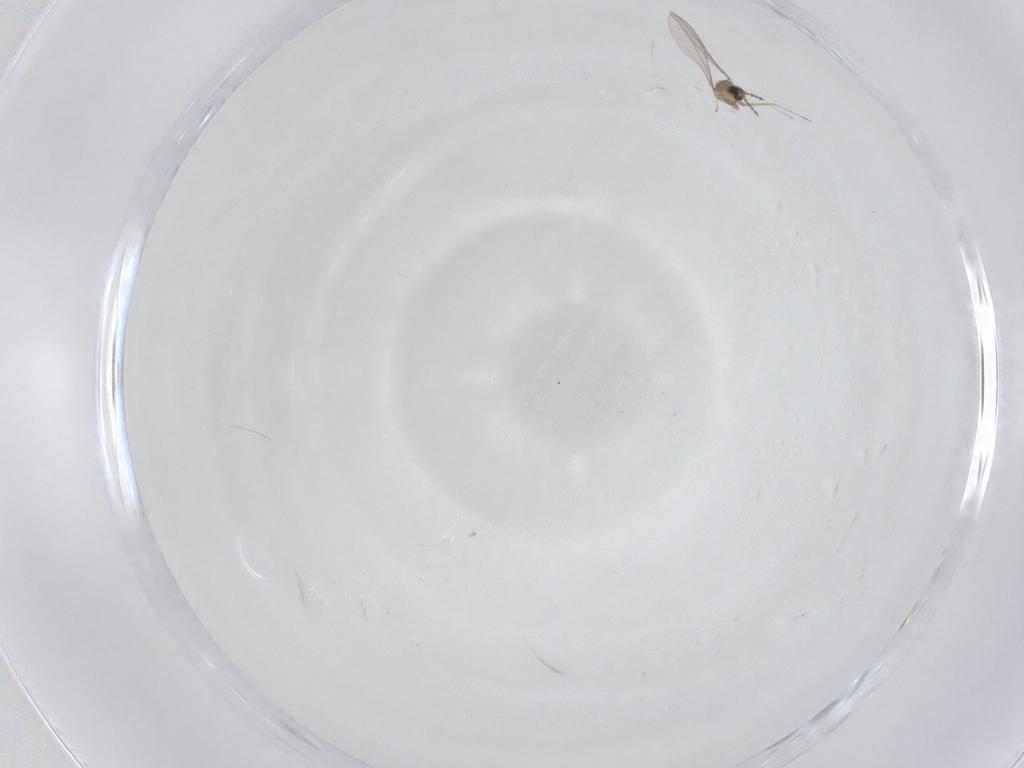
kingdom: Animalia
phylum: Arthropoda
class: Insecta
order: Diptera
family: Cecidomyiidae
